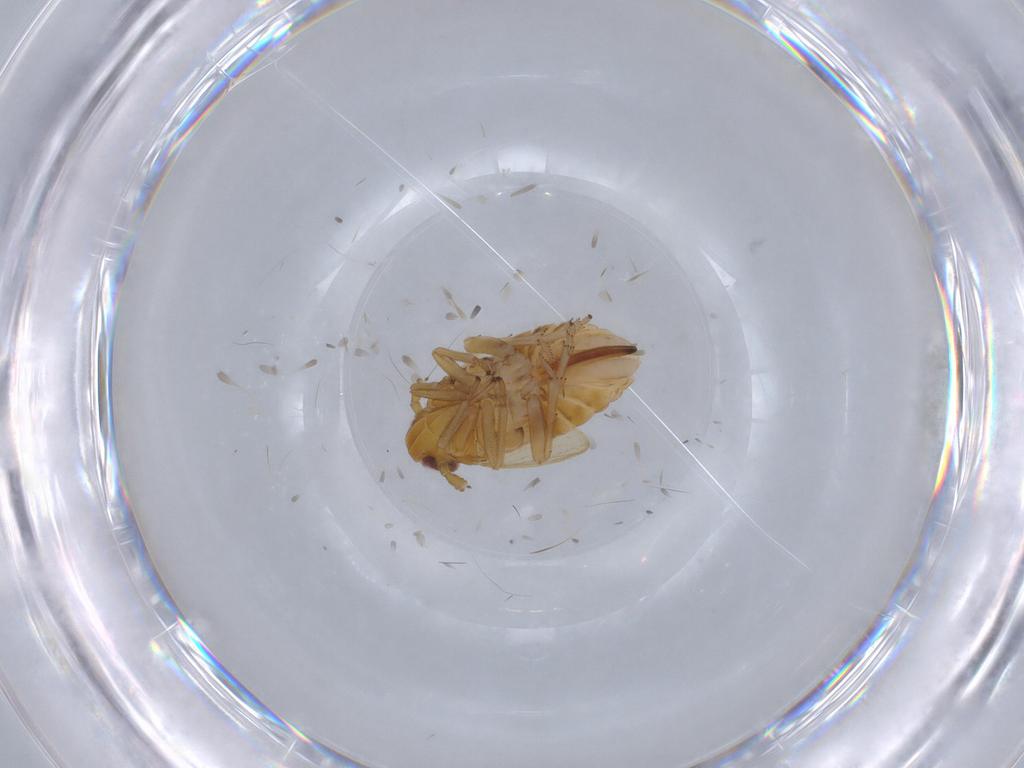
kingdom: Animalia
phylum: Arthropoda
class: Insecta
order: Hemiptera
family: Delphacidae
